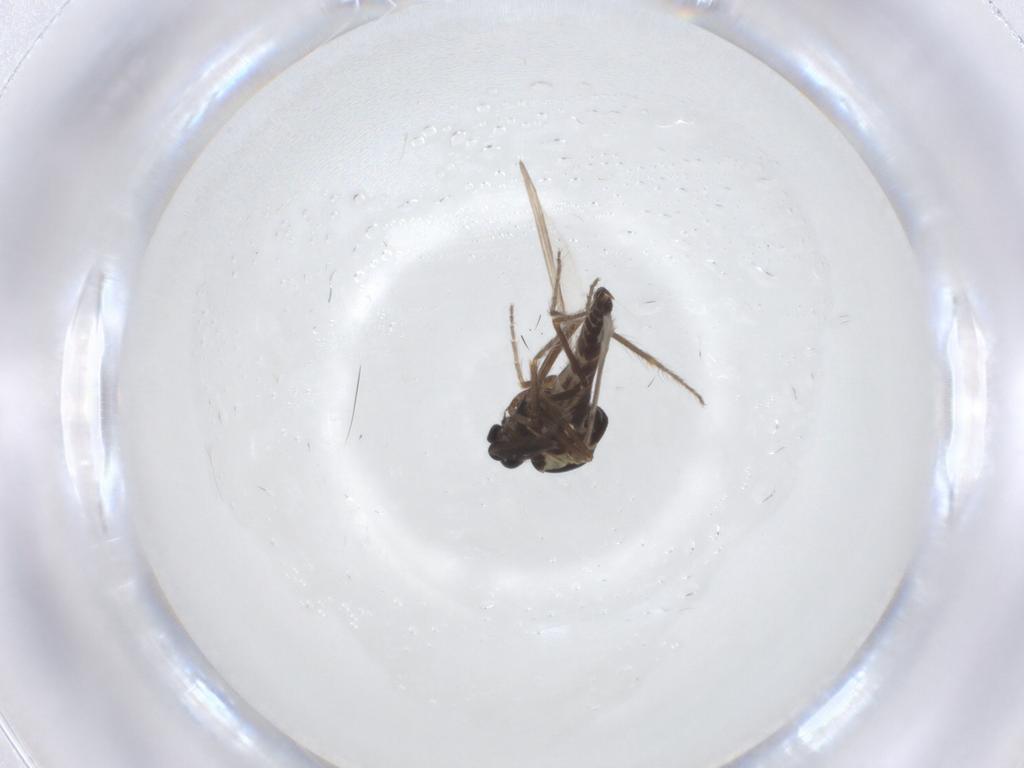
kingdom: Animalia
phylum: Arthropoda
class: Insecta
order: Diptera
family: Ceratopogonidae
